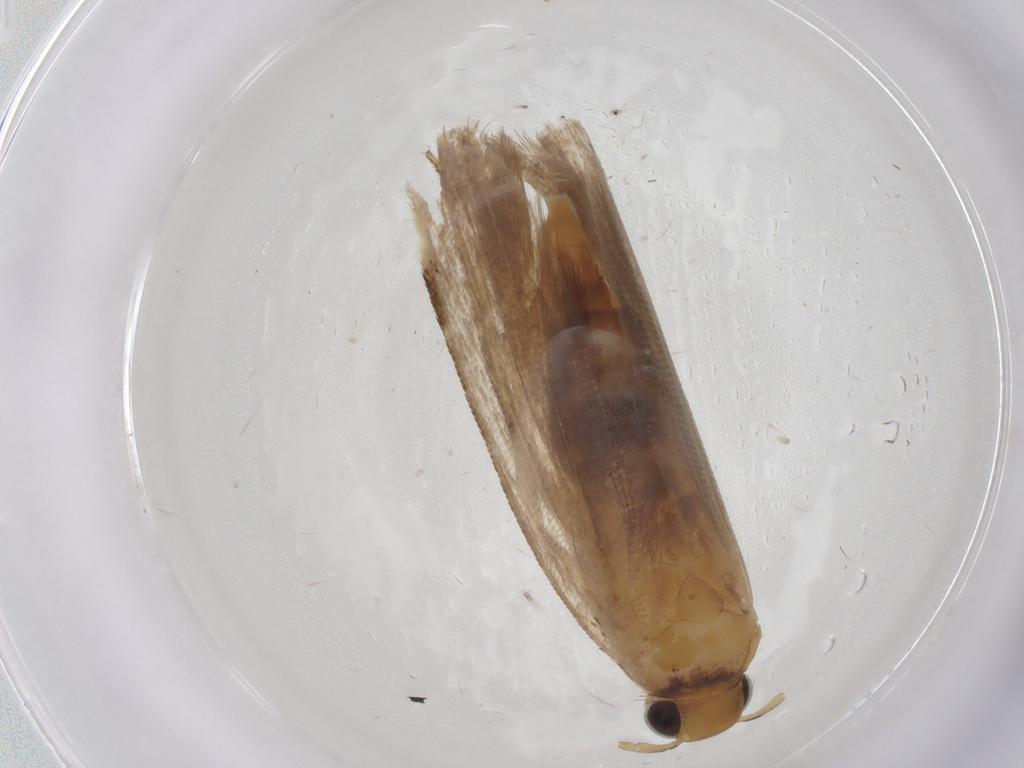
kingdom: Animalia
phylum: Arthropoda
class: Insecta
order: Lepidoptera
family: Gelechiidae
